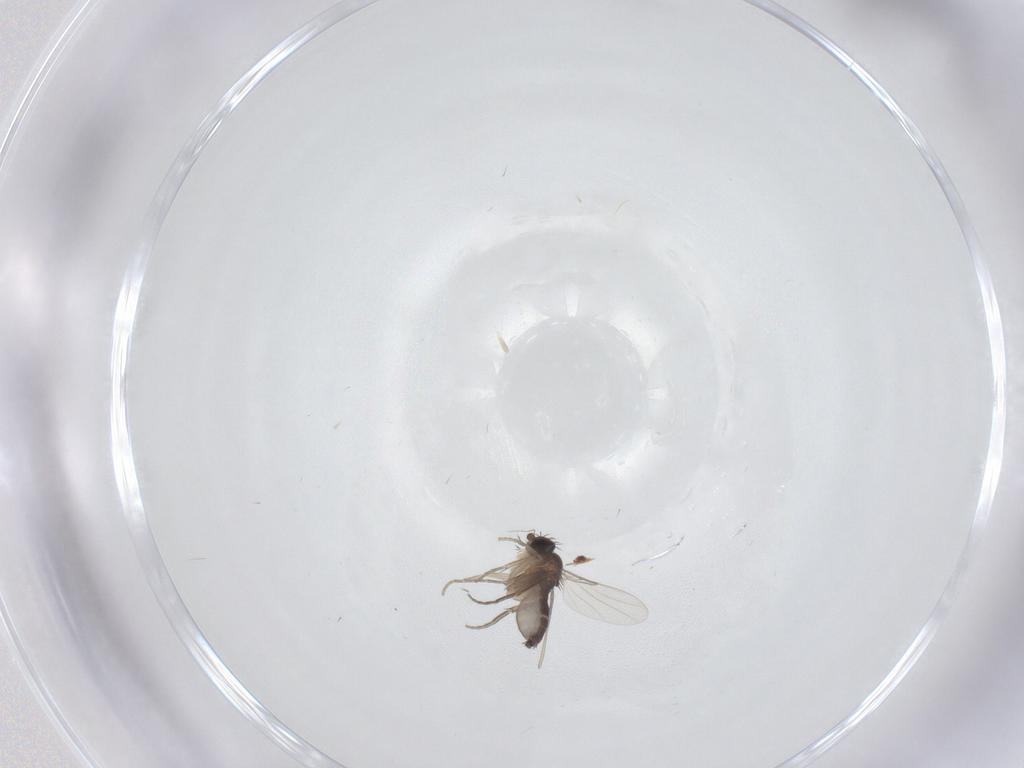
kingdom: Animalia
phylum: Arthropoda
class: Insecta
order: Diptera
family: Phoridae
